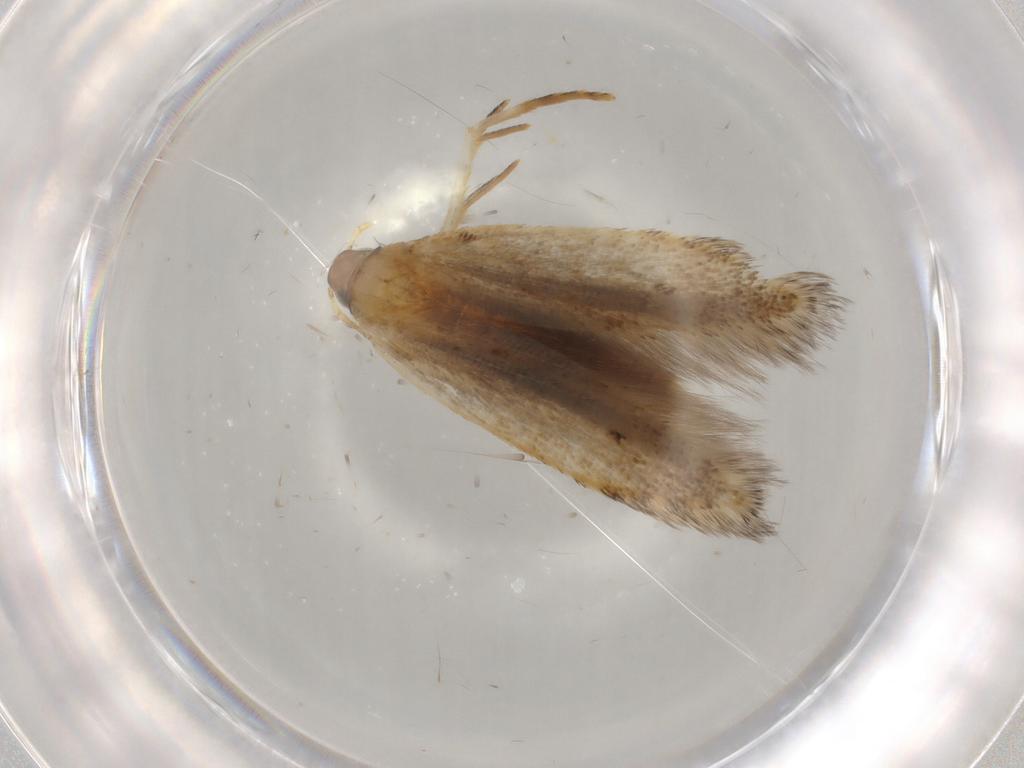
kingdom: Animalia
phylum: Arthropoda
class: Insecta
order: Lepidoptera
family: Gelechiidae
